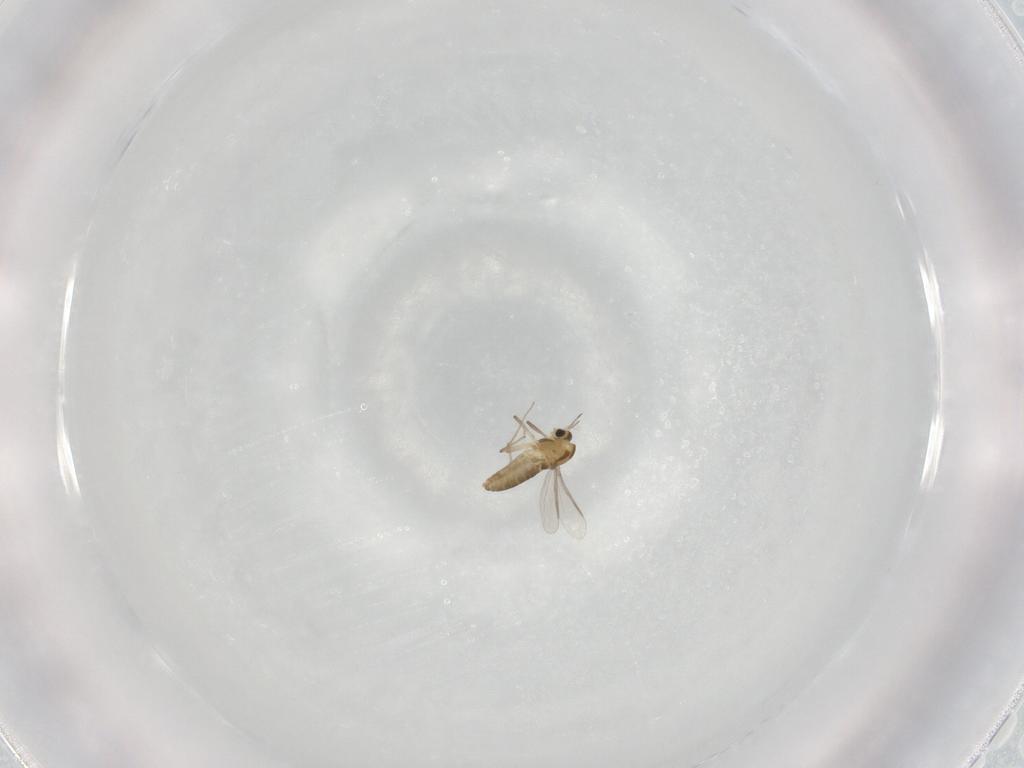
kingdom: Animalia
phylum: Arthropoda
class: Insecta
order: Diptera
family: Chironomidae
